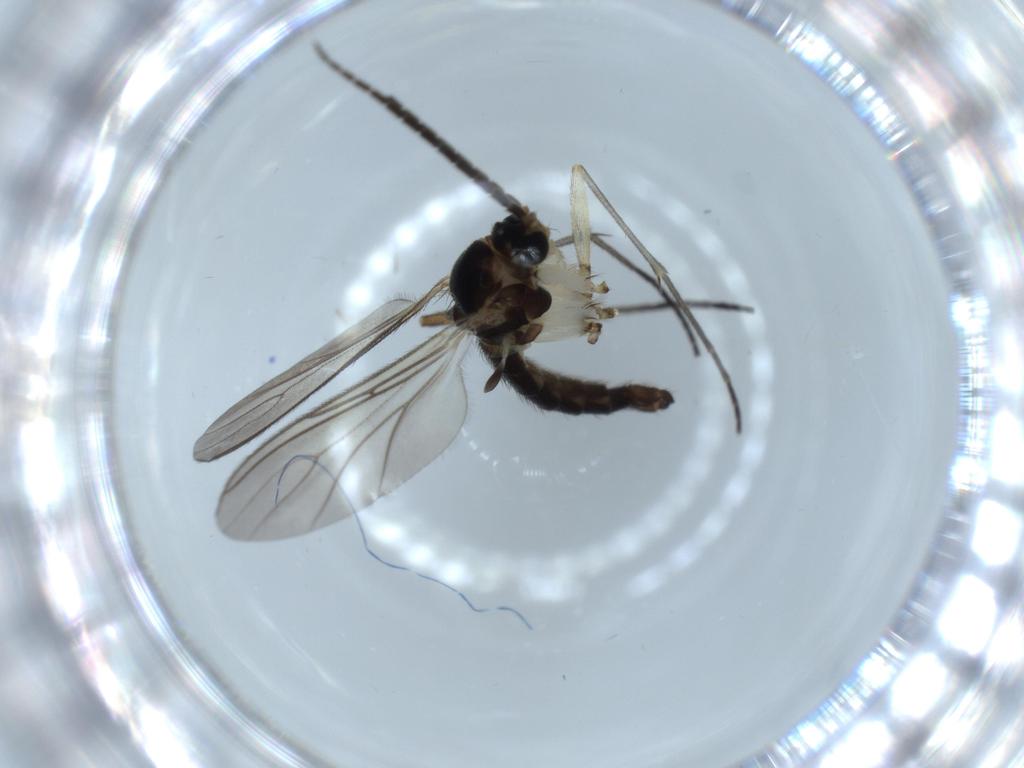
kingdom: Animalia
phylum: Arthropoda
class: Insecta
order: Diptera
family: Sciaridae
